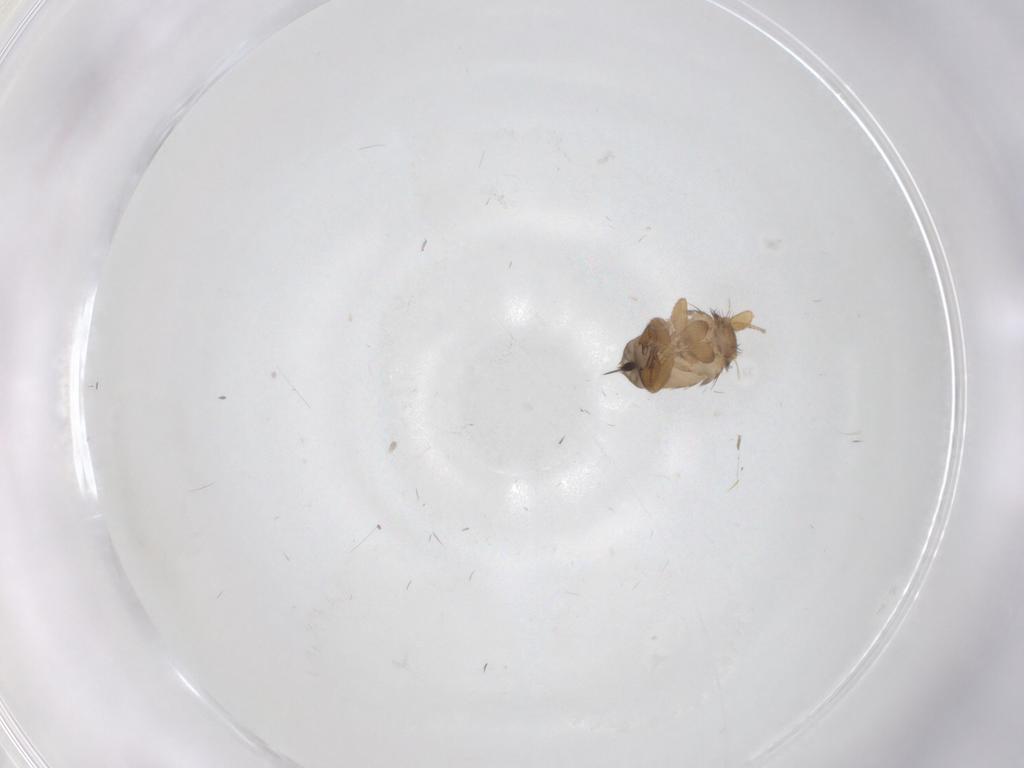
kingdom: Animalia
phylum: Arthropoda
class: Insecta
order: Diptera
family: Phoridae
